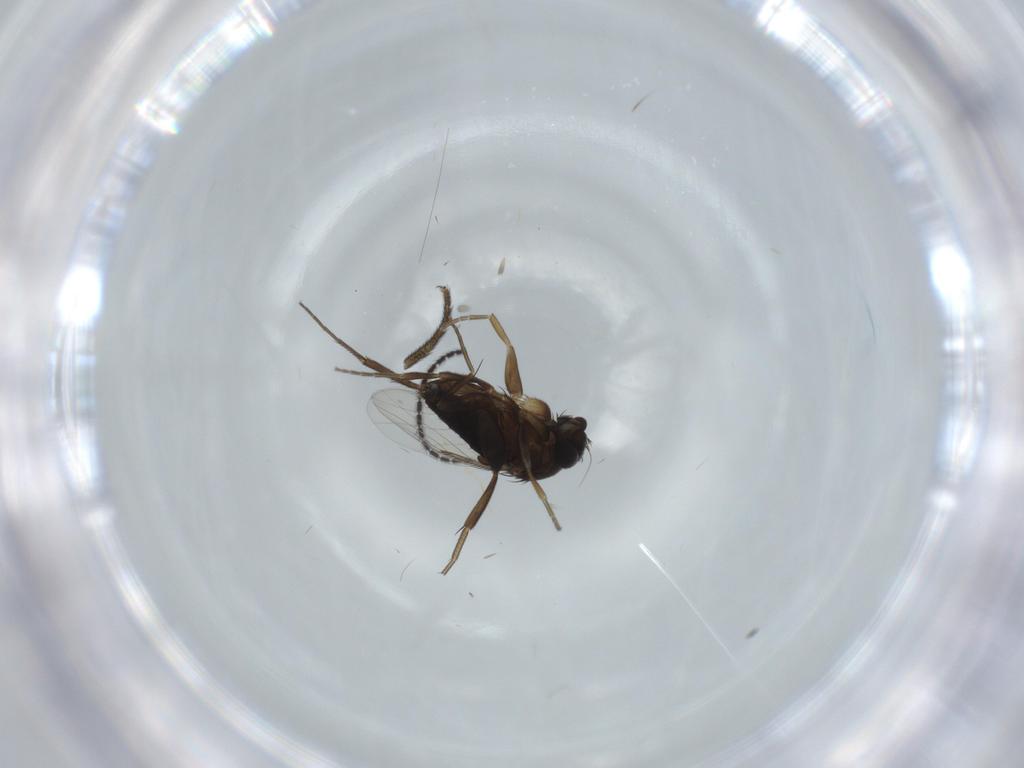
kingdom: Animalia
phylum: Arthropoda
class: Insecta
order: Diptera
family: Phoridae
